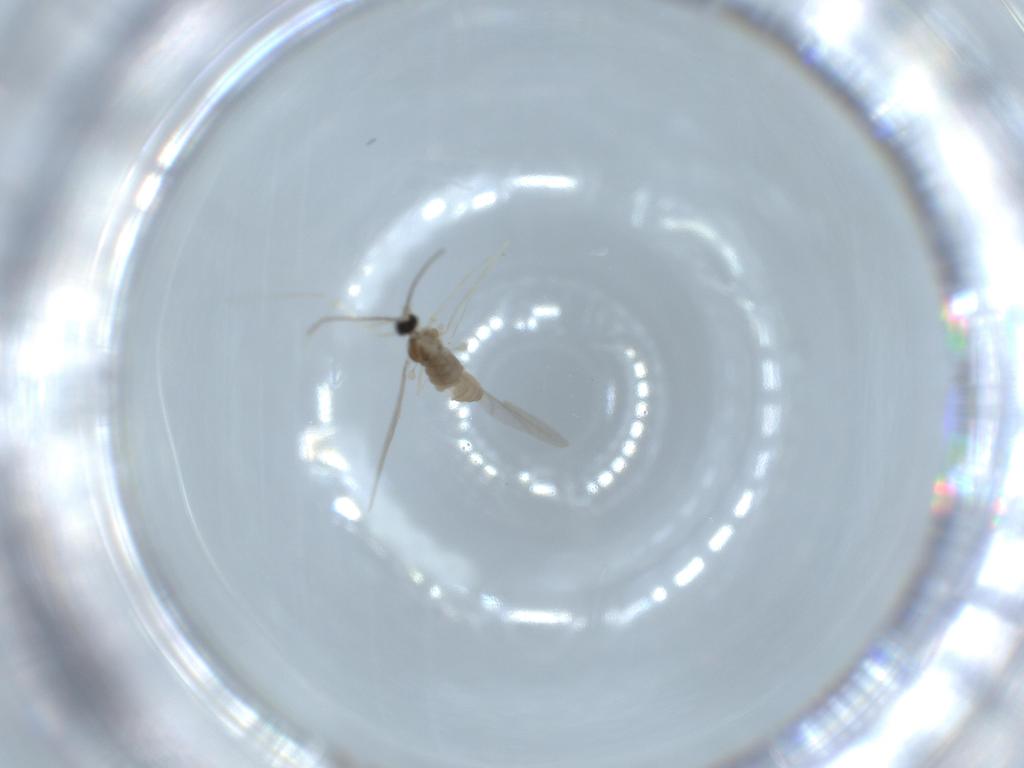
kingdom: Animalia
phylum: Arthropoda
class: Insecta
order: Diptera
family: Cecidomyiidae
